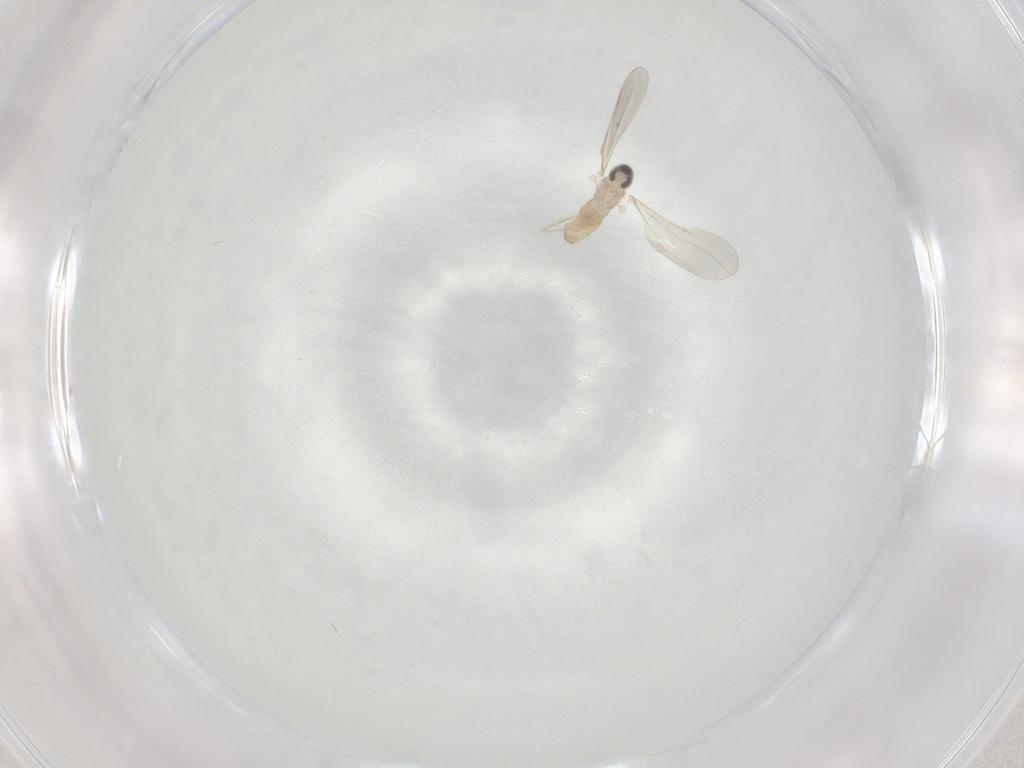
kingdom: Animalia
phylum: Arthropoda
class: Insecta
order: Diptera
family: Cecidomyiidae
